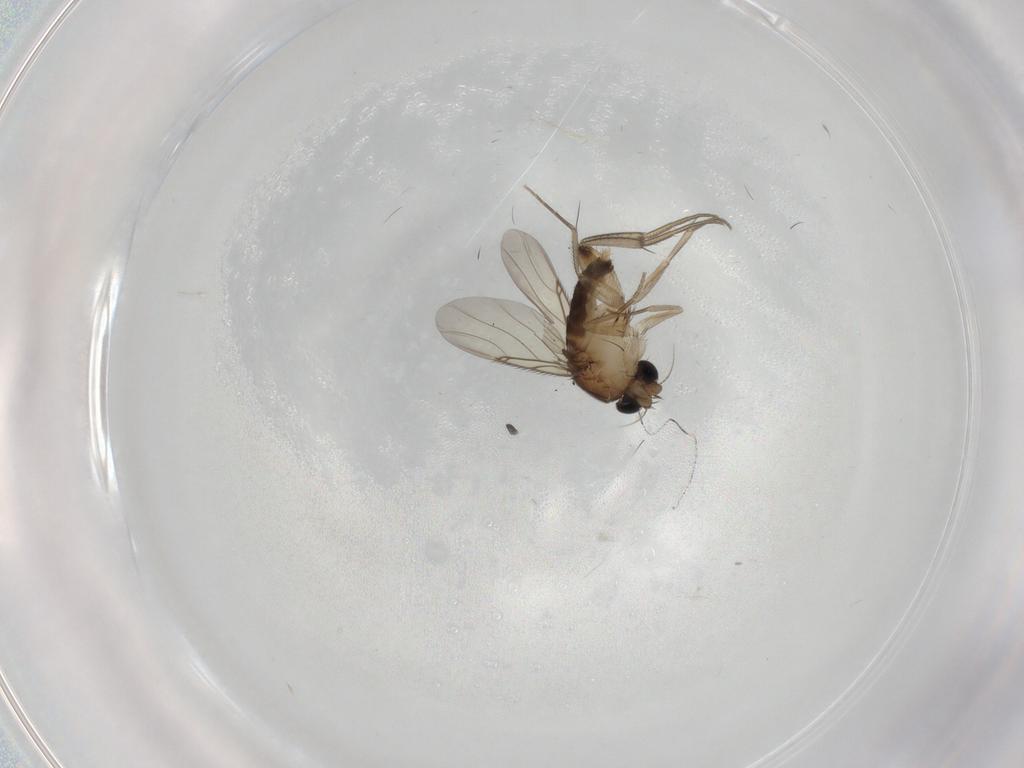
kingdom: Animalia
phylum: Arthropoda
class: Insecta
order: Diptera
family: Phoridae
